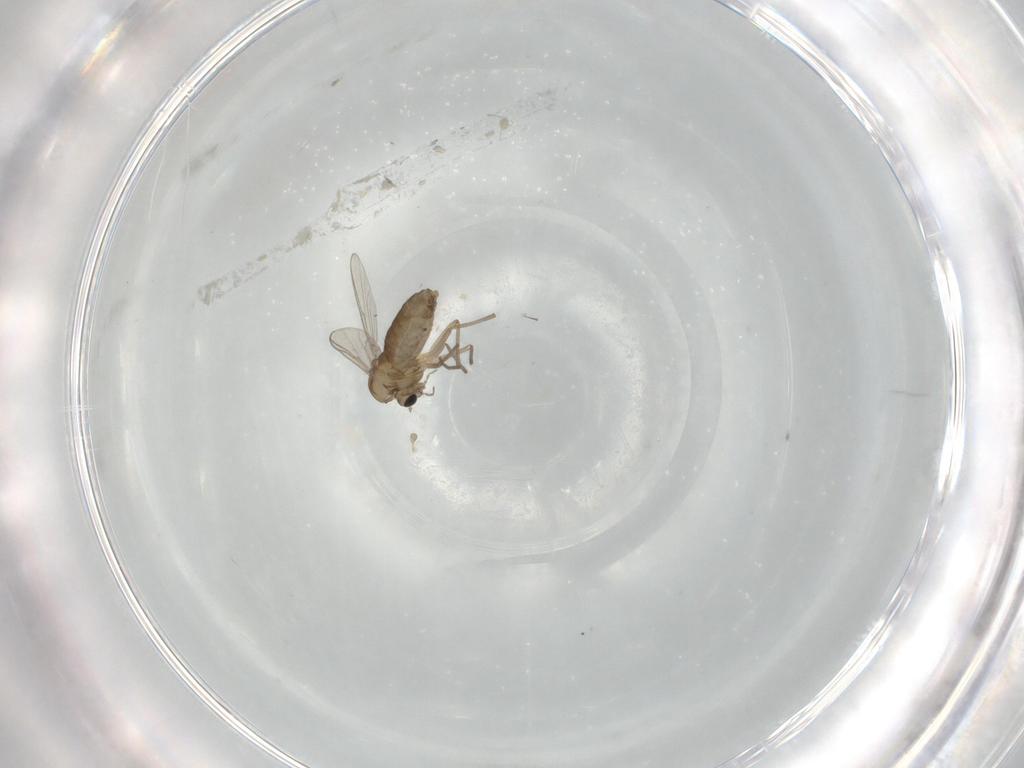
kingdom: Animalia
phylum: Arthropoda
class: Insecta
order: Diptera
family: Chironomidae
